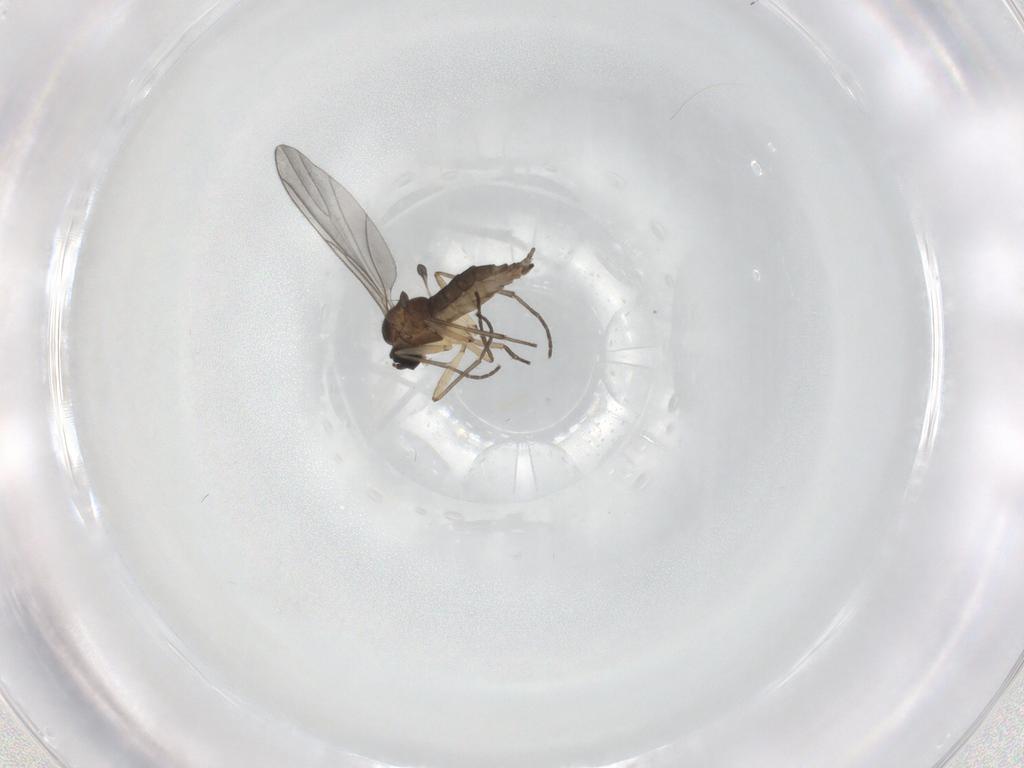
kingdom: Animalia
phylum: Arthropoda
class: Insecta
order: Diptera
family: Sciaridae
